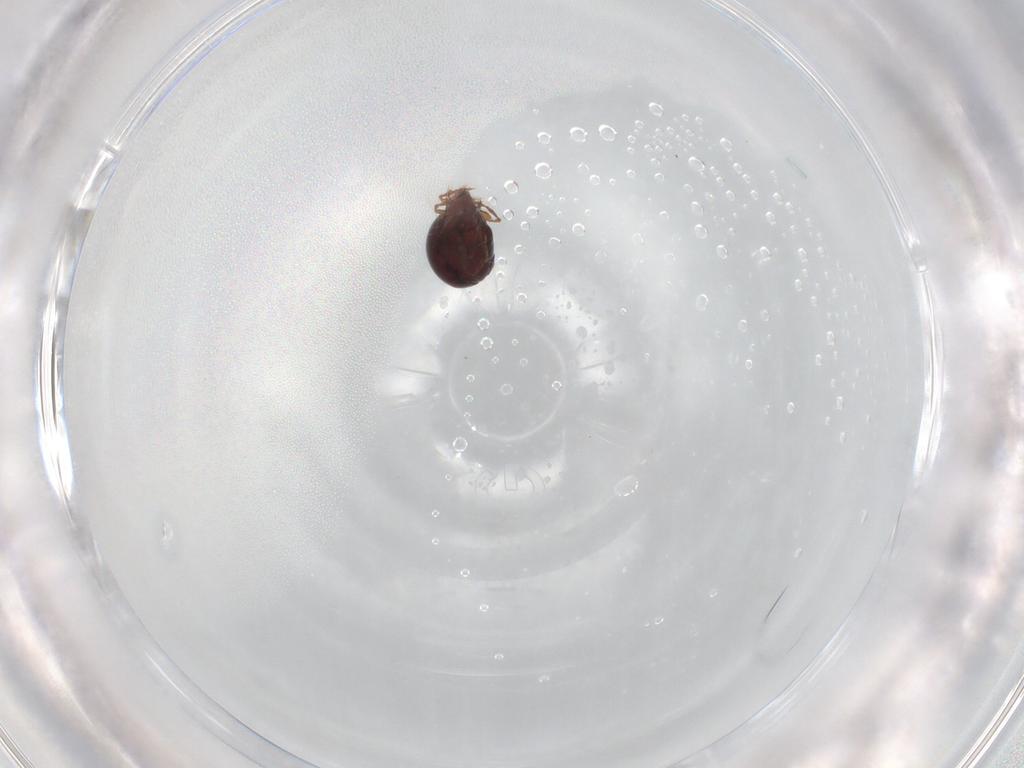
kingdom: Animalia
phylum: Arthropoda
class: Arachnida
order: Sarcoptiformes
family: Ceratoppiidae
